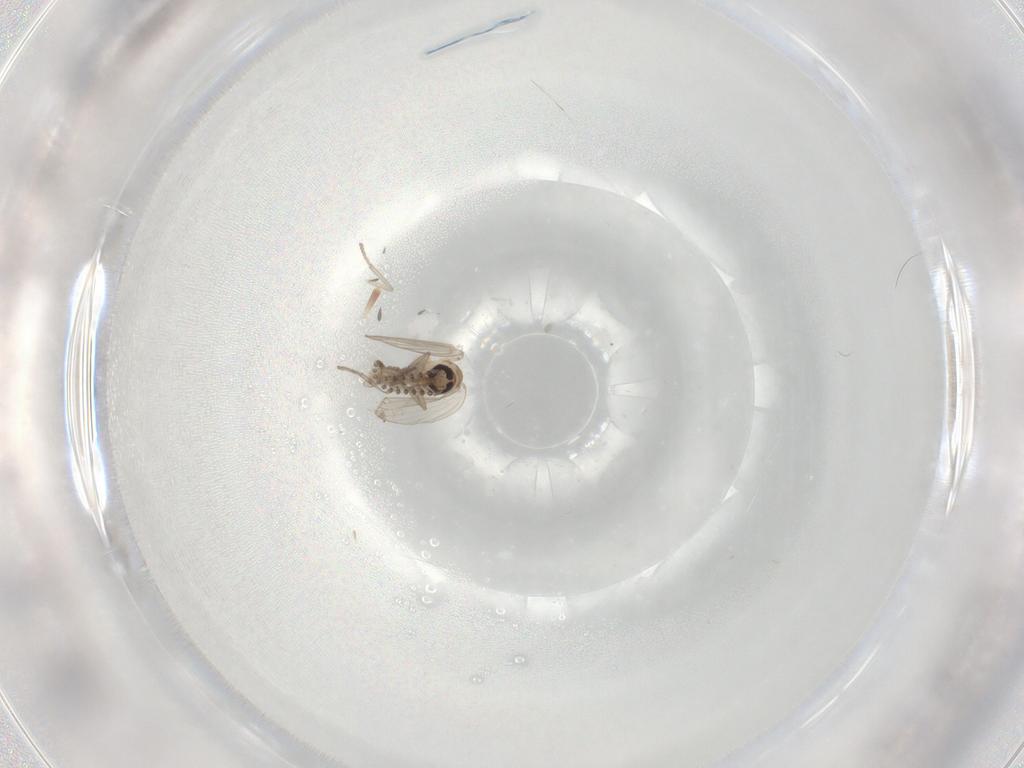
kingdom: Animalia
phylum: Arthropoda
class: Insecta
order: Diptera
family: Psychodidae
